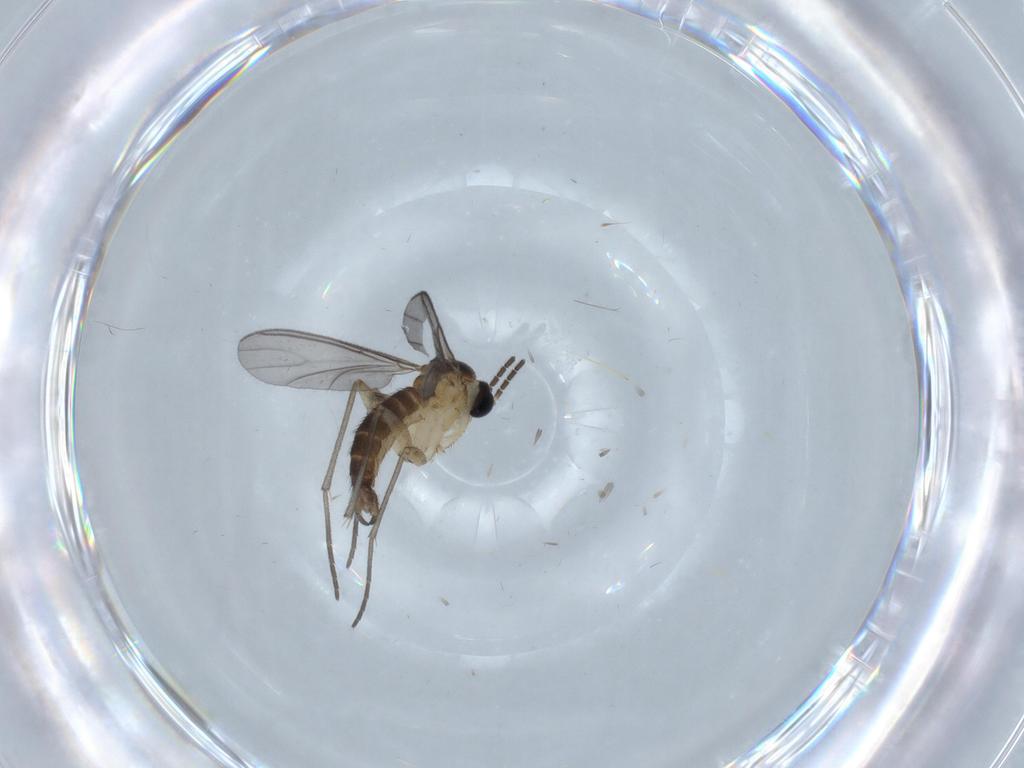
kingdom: Animalia
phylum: Arthropoda
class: Insecta
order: Diptera
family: Sciaridae
